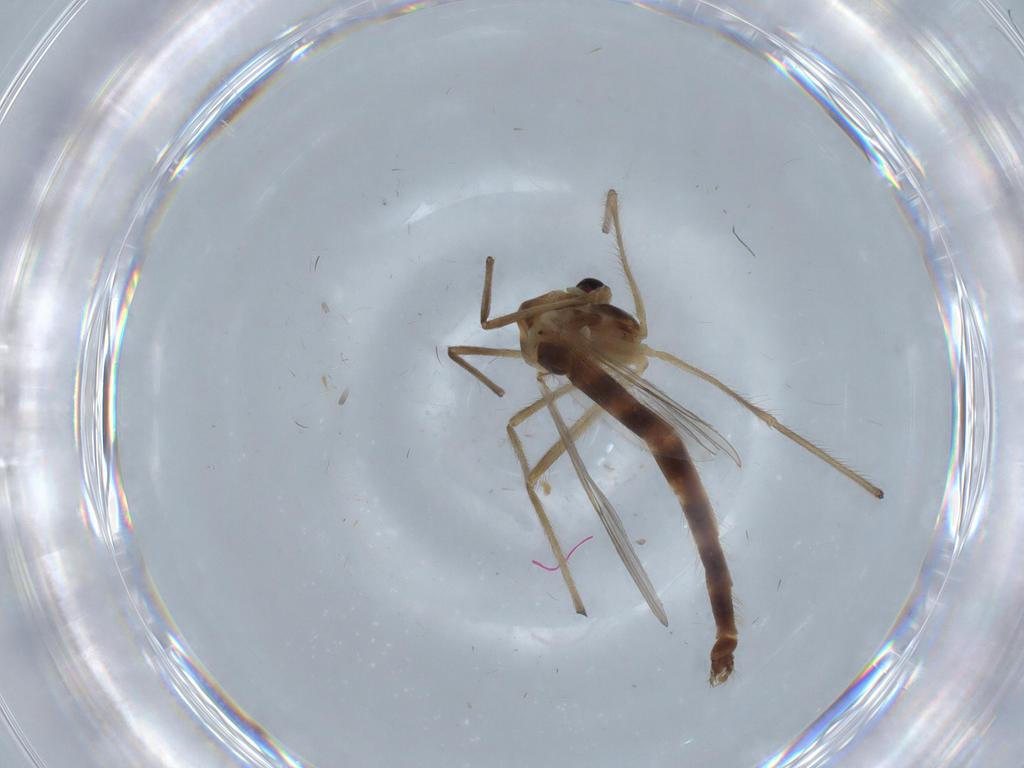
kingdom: Animalia
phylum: Arthropoda
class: Insecta
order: Diptera
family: Chironomidae
